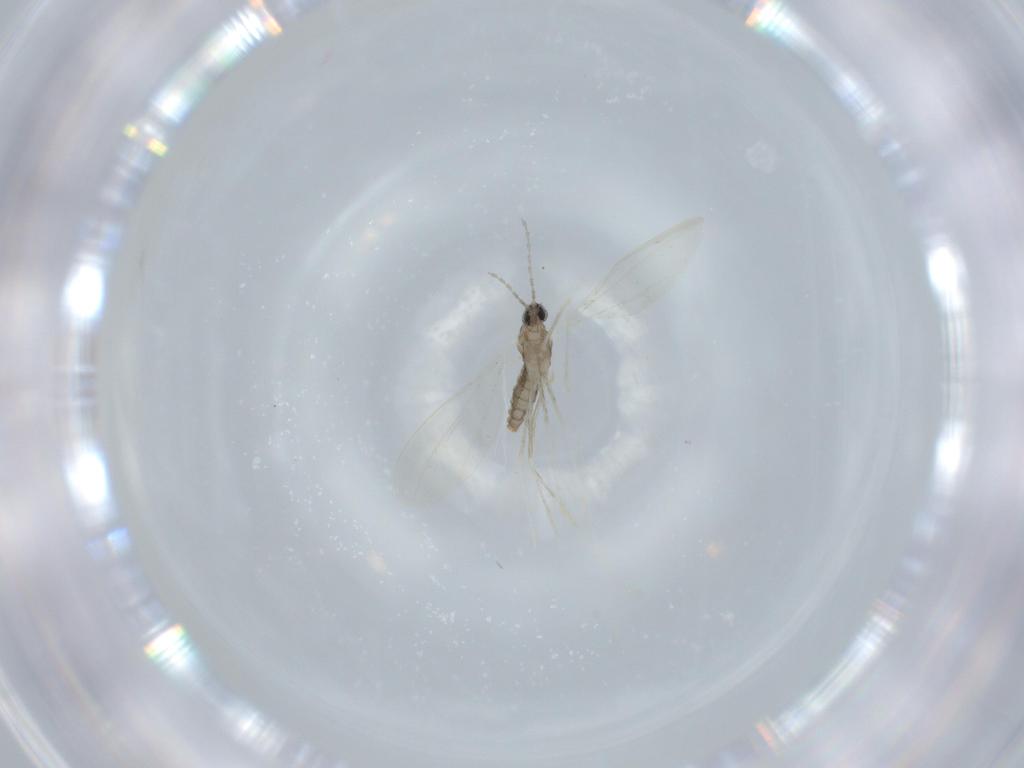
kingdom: Animalia
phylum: Arthropoda
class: Insecta
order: Diptera
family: Cecidomyiidae
